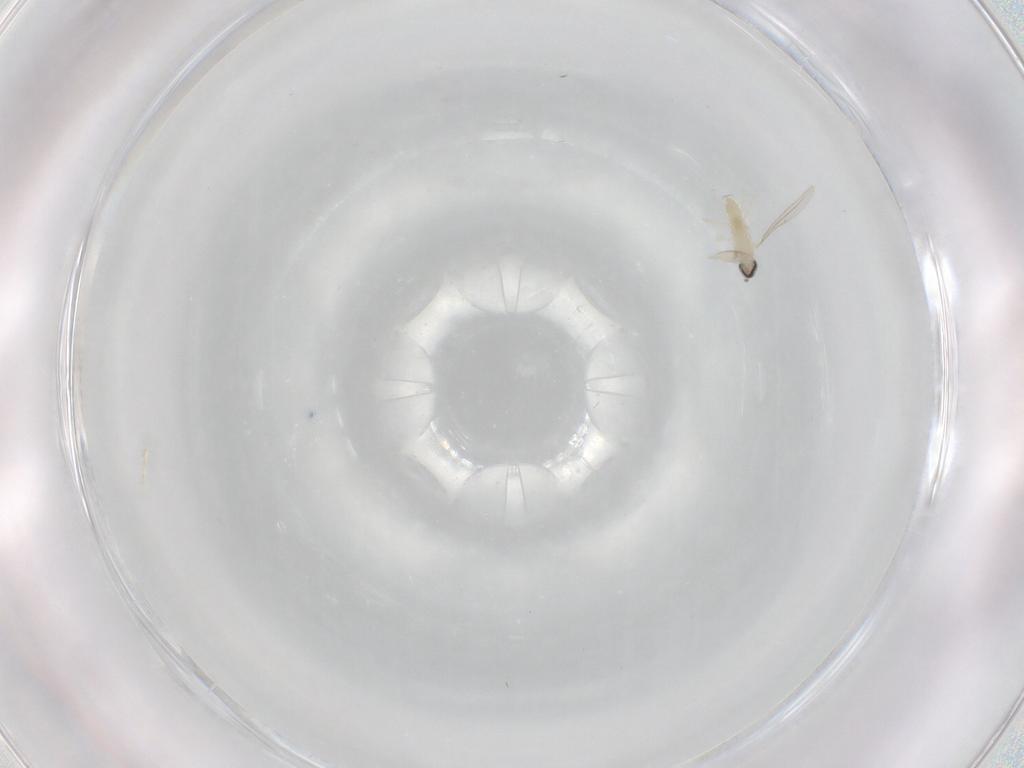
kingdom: Animalia
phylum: Arthropoda
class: Insecta
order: Diptera
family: Cecidomyiidae
